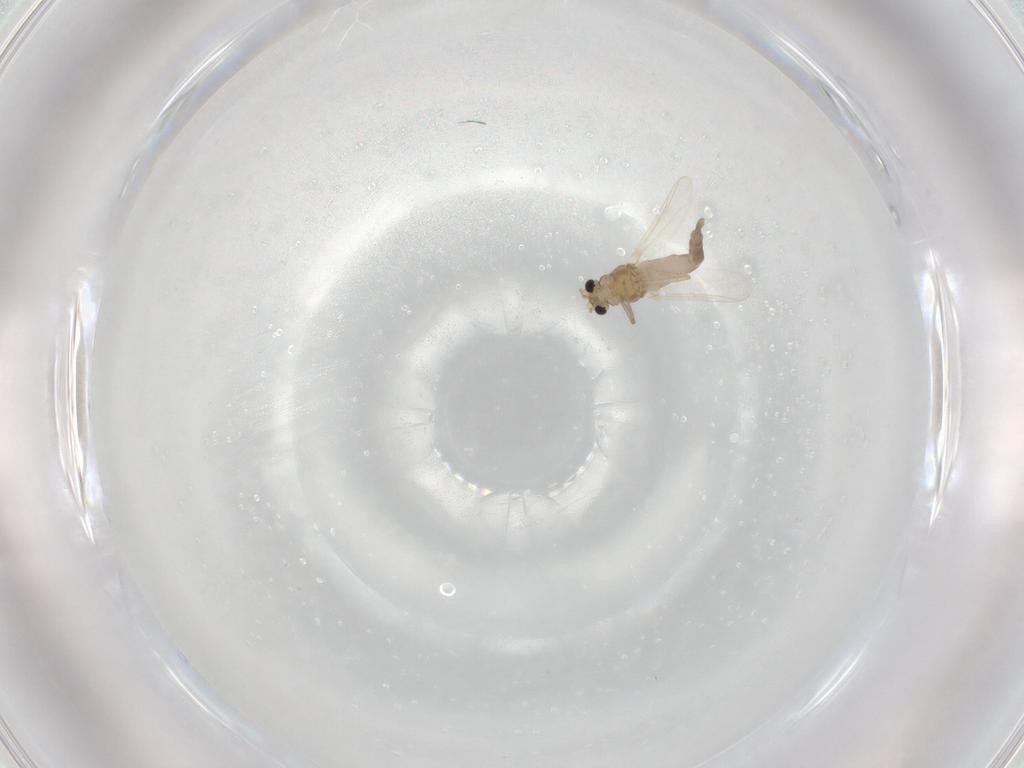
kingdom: Animalia
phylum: Arthropoda
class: Insecta
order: Diptera
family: Chironomidae
